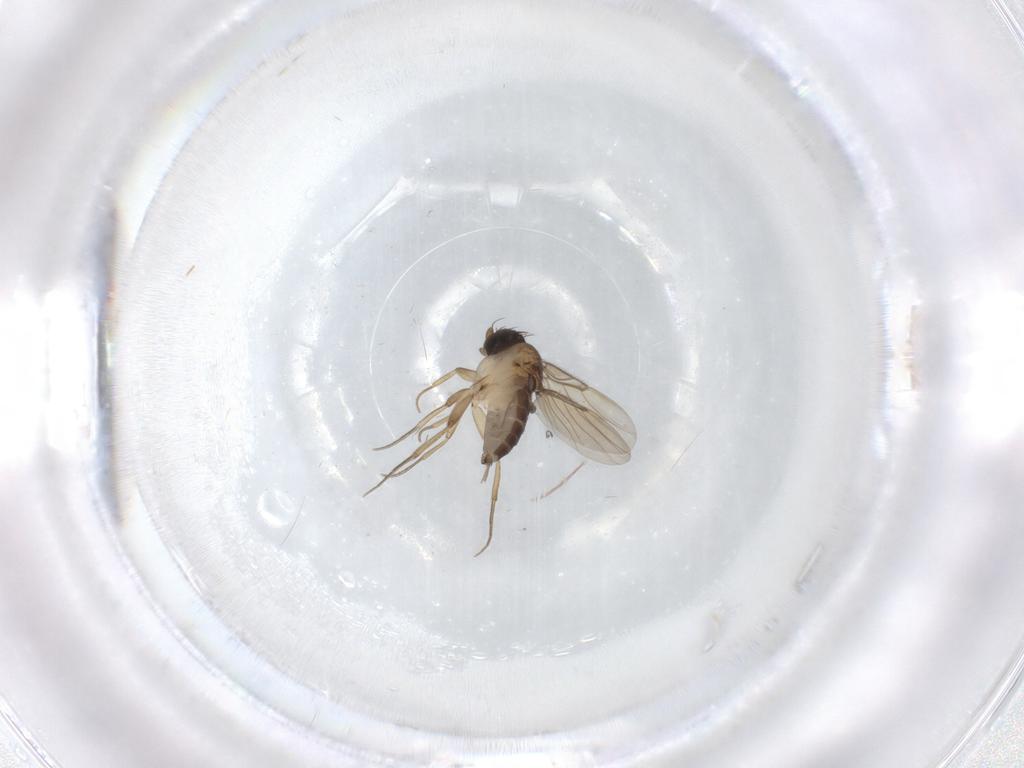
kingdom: Animalia
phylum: Arthropoda
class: Insecta
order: Diptera
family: Phoridae
